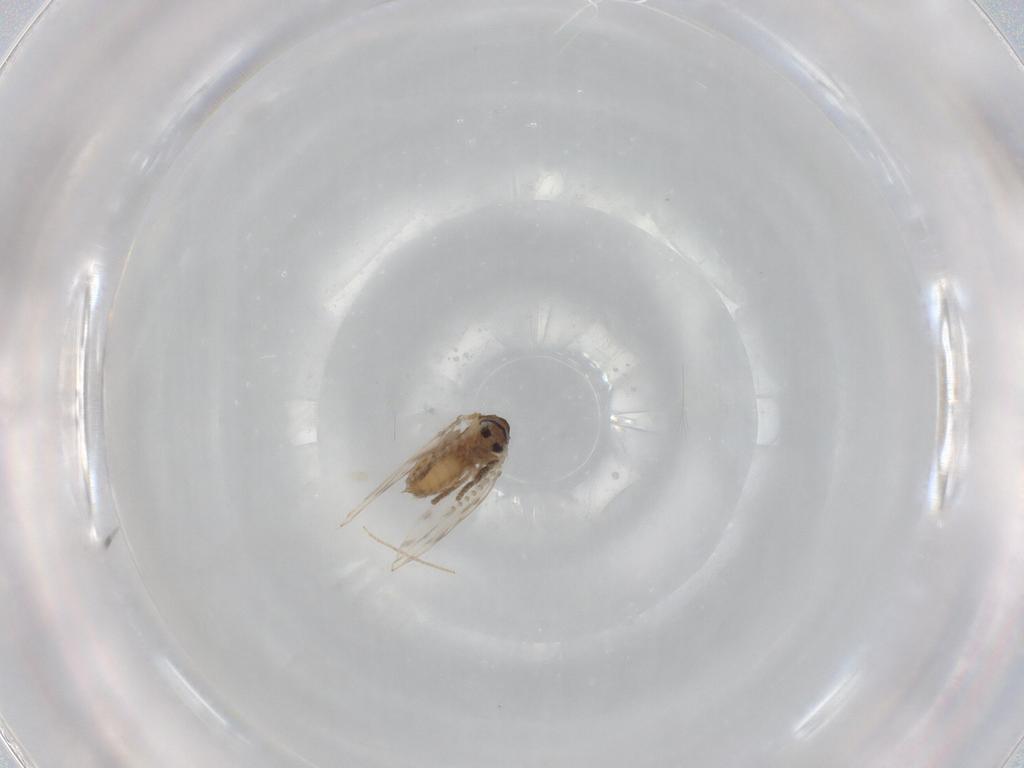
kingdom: Animalia
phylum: Arthropoda
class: Insecta
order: Diptera
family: Psychodidae
